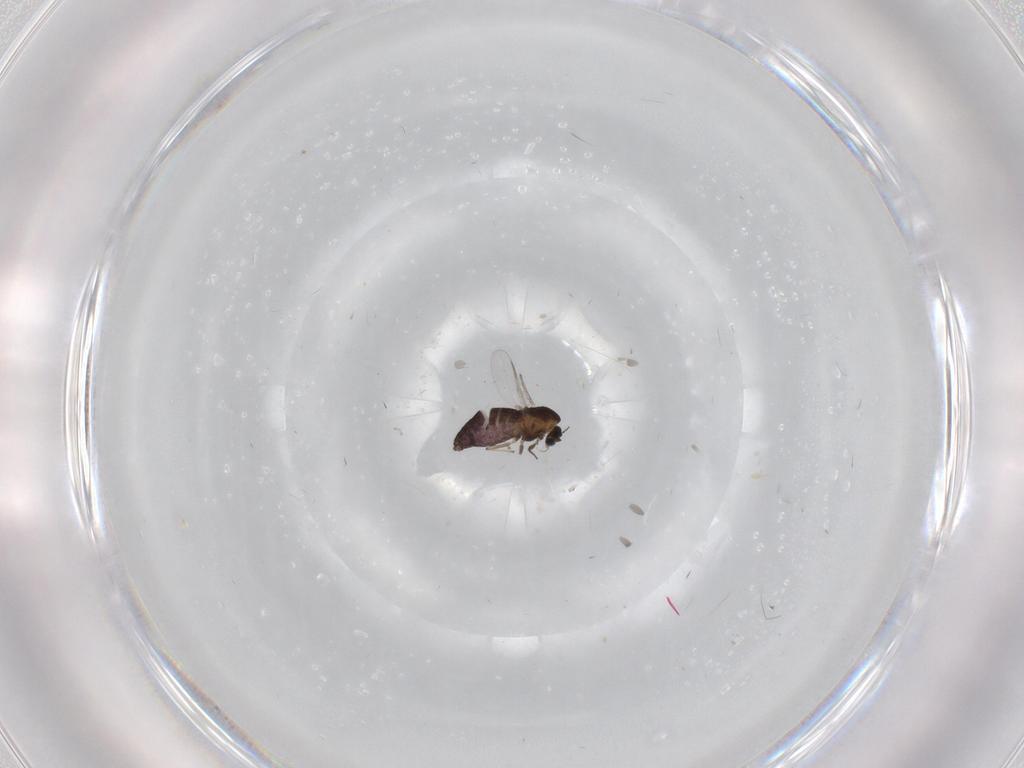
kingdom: Animalia
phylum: Arthropoda
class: Insecta
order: Diptera
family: Chironomidae
